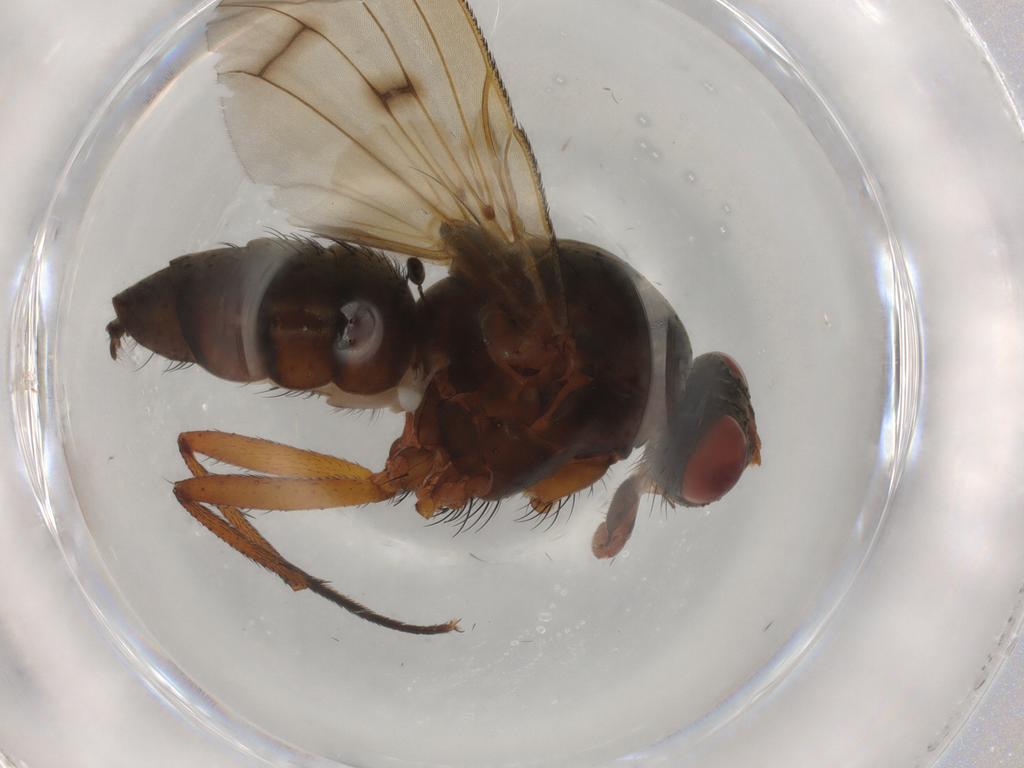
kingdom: Animalia
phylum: Arthropoda
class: Insecta
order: Diptera
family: Anthomyiidae
